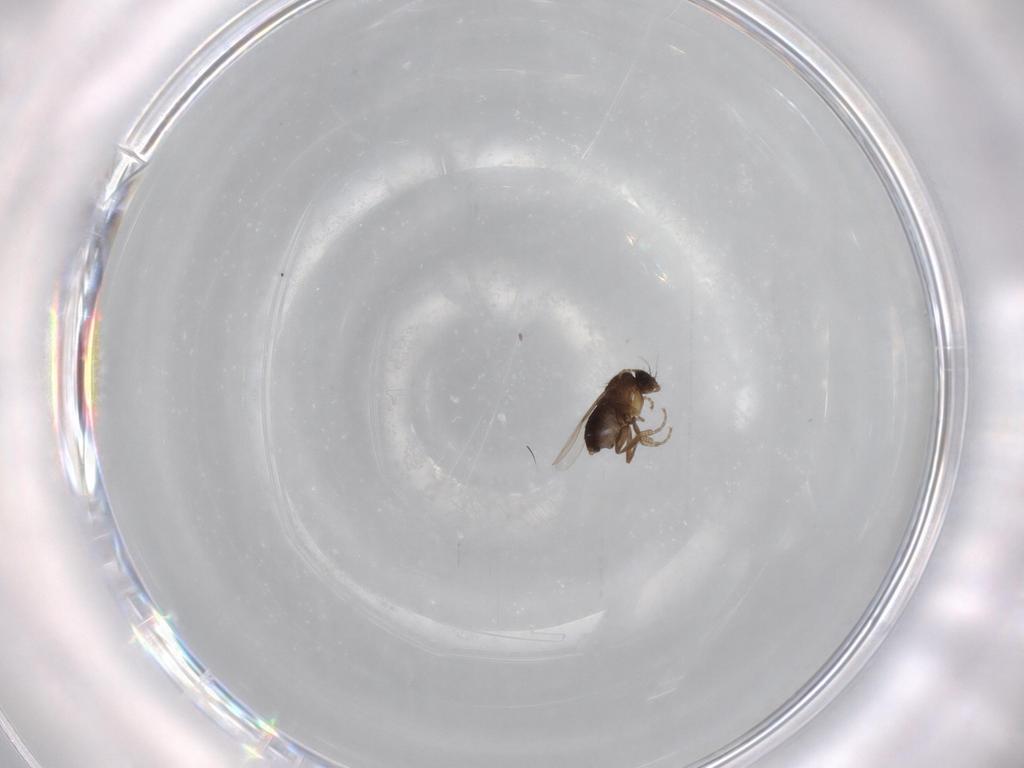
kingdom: Animalia
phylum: Arthropoda
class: Insecta
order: Diptera
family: Phoridae
